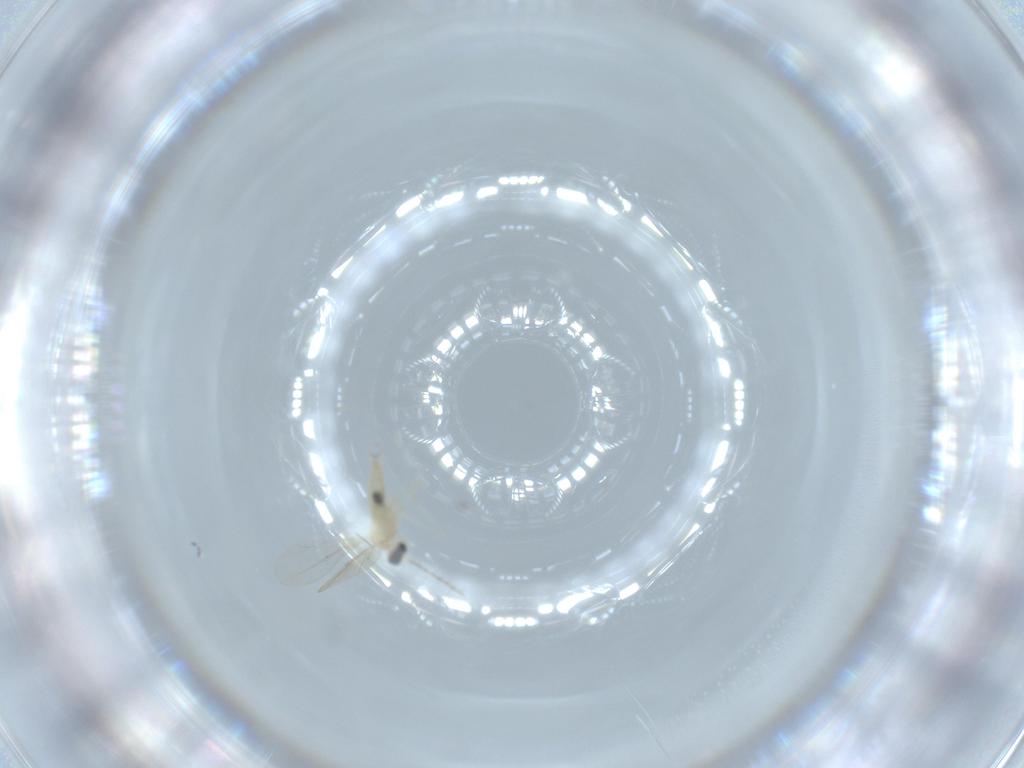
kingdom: Animalia
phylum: Arthropoda
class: Insecta
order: Diptera
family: Cecidomyiidae
